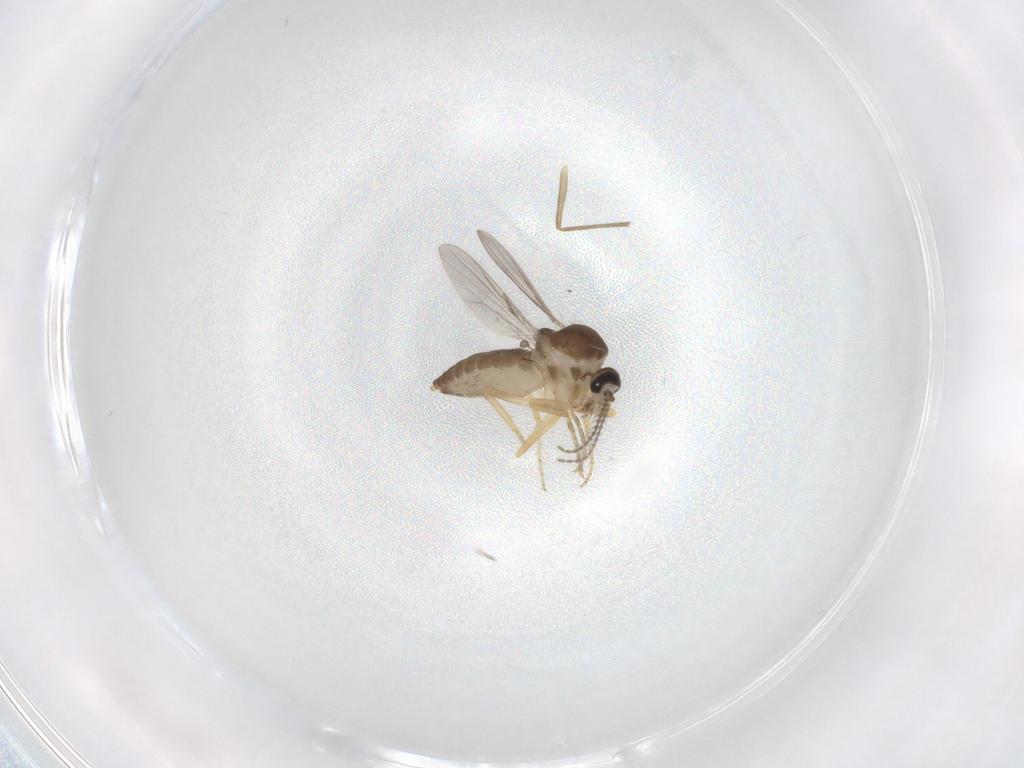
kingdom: Animalia
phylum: Arthropoda
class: Insecta
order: Diptera
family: Ceratopogonidae
